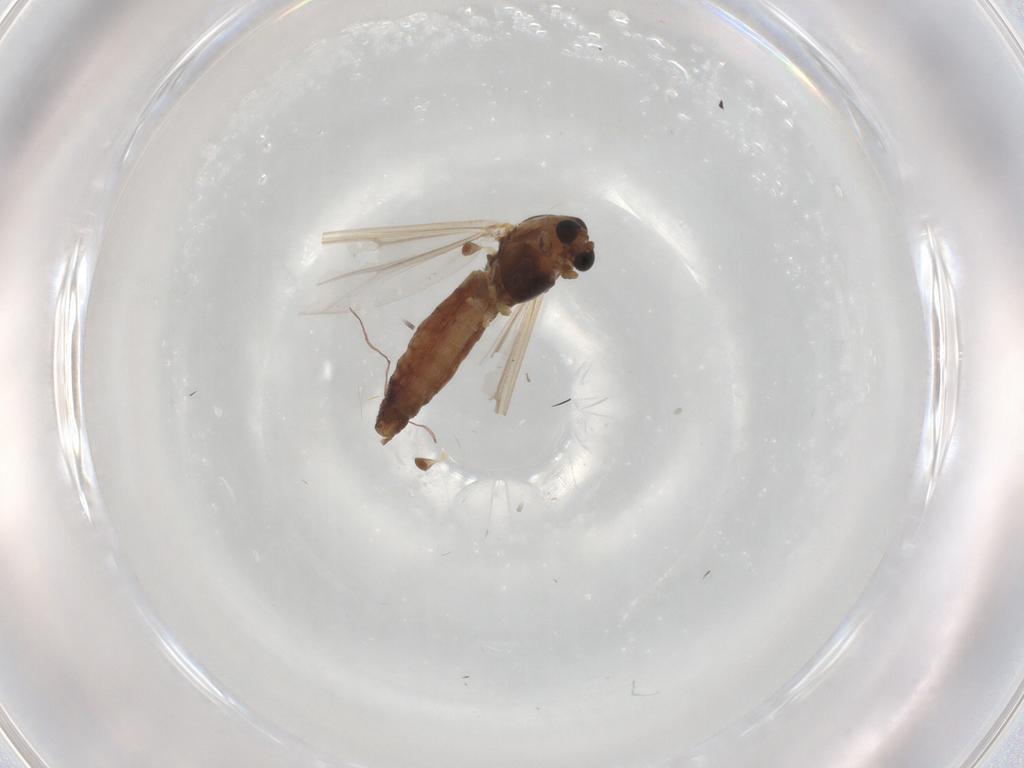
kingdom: Animalia
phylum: Arthropoda
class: Insecta
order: Diptera
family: Chironomidae
